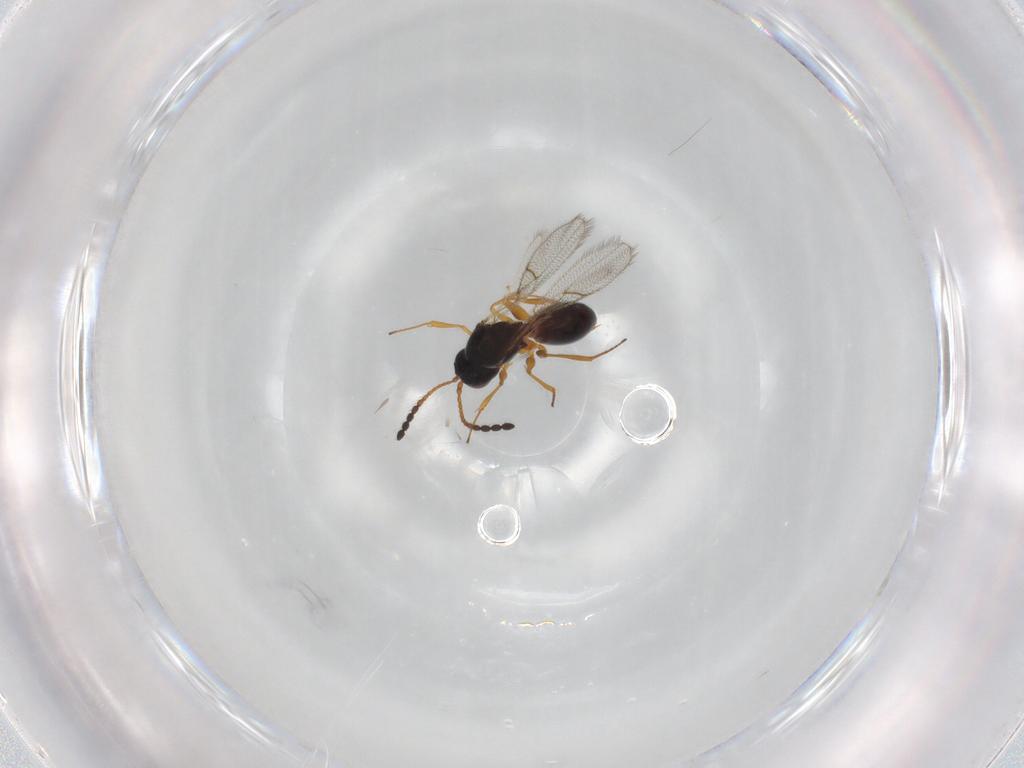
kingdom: Animalia
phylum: Arthropoda
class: Insecta
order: Hymenoptera
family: Figitidae
